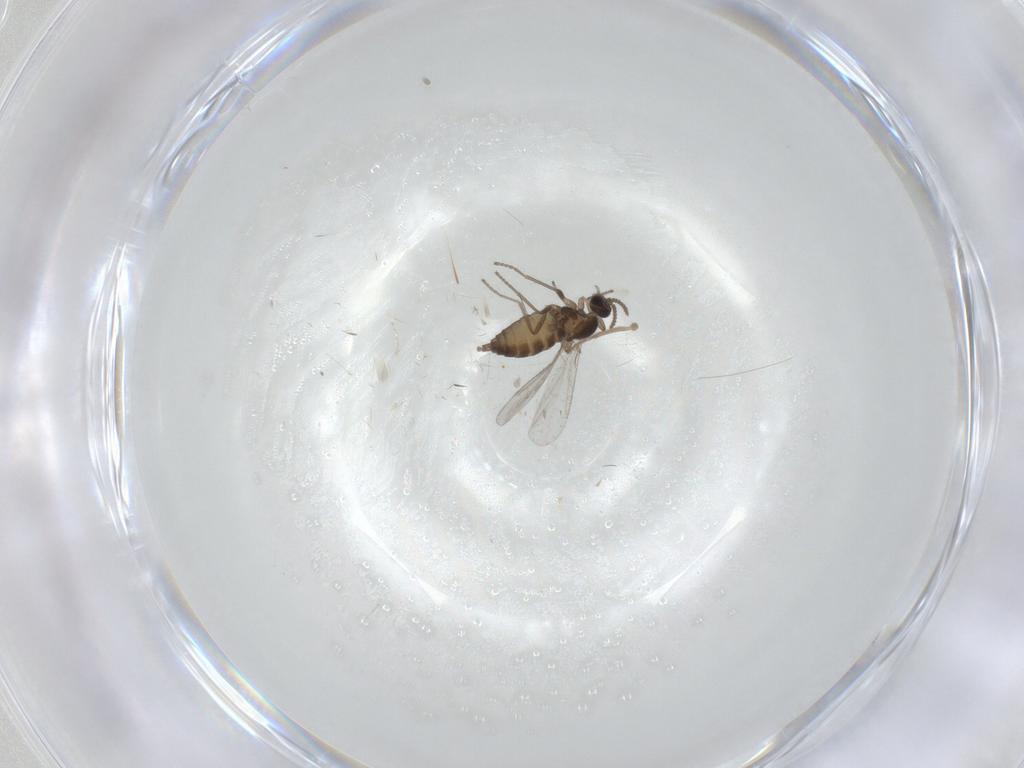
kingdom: Animalia
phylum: Arthropoda
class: Insecta
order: Diptera
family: Cecidomyiidae
